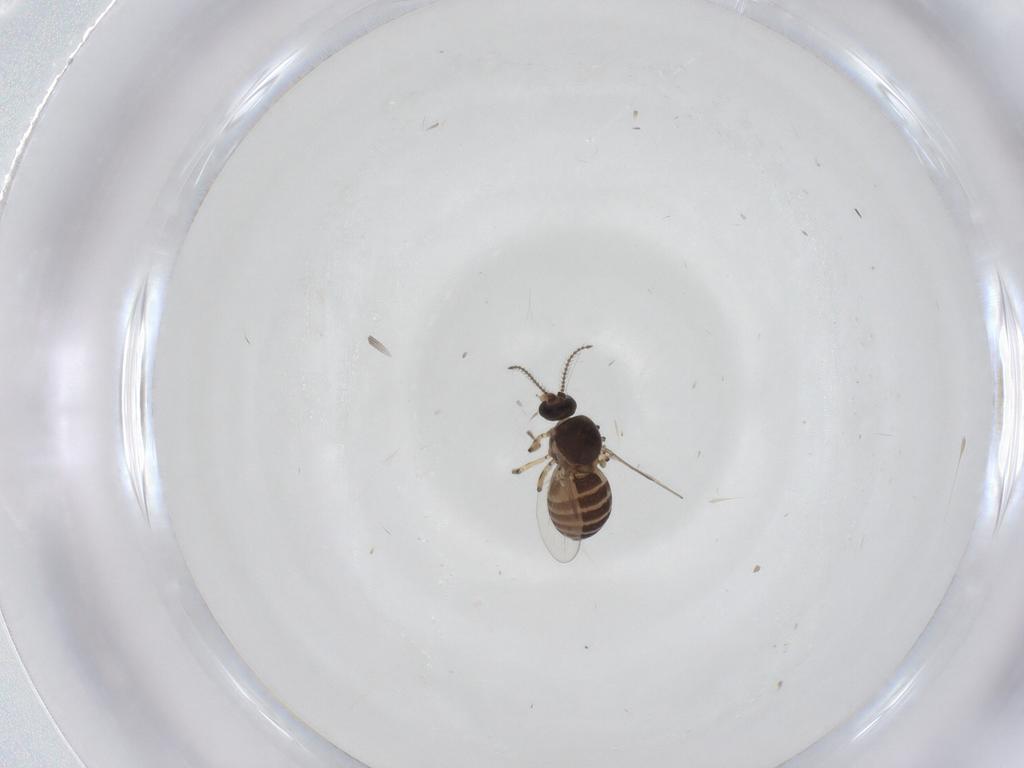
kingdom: Animalia
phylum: Arthropoda
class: Insecta
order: Diptera
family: Ceratopogonidae
